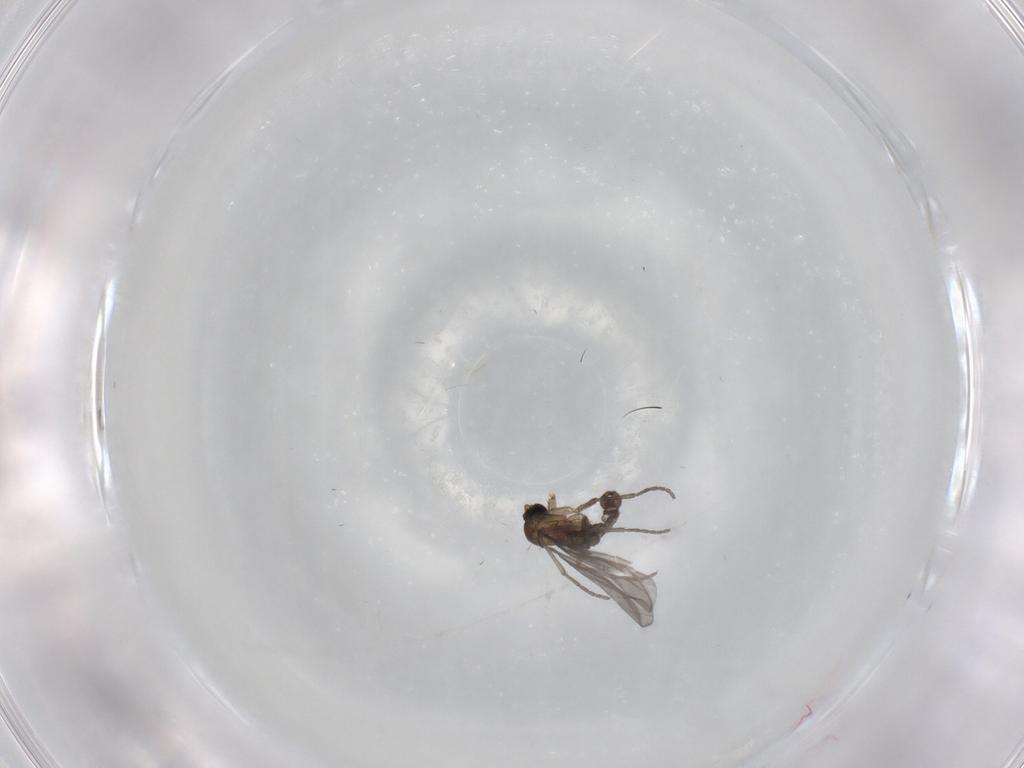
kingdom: Animalia
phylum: Arthropoda
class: Insecta
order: Diptera
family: Sciaridae
